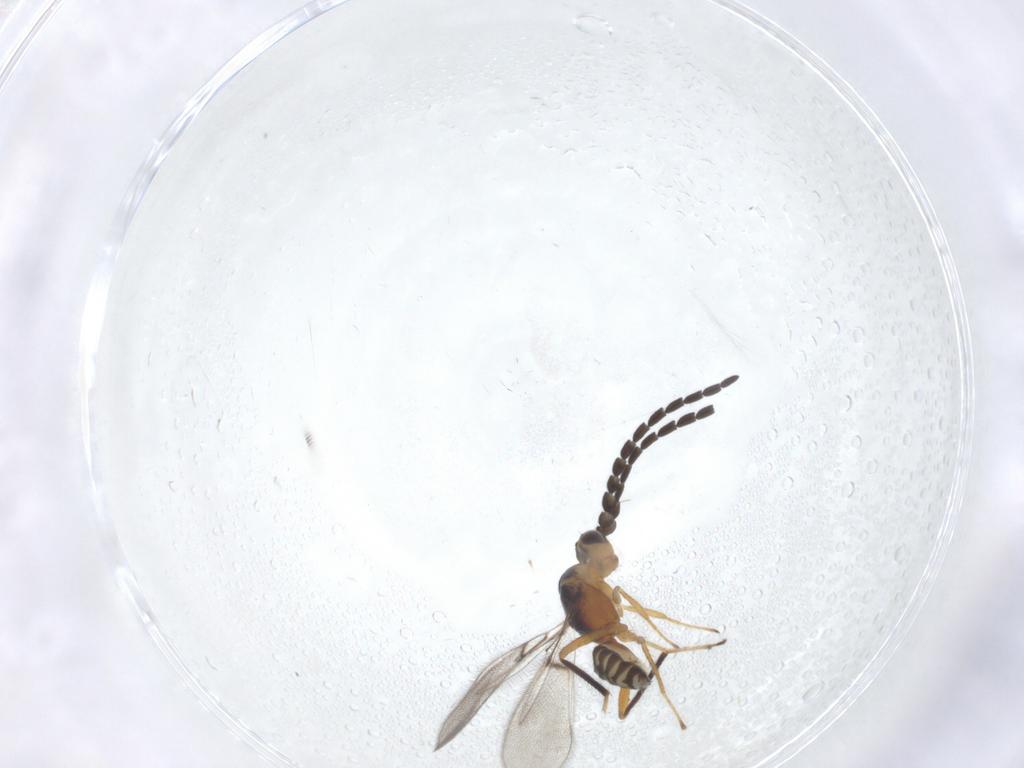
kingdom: Animalia
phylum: Arthropoda
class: Insecta
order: Hymenoptera
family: Mymaridae
